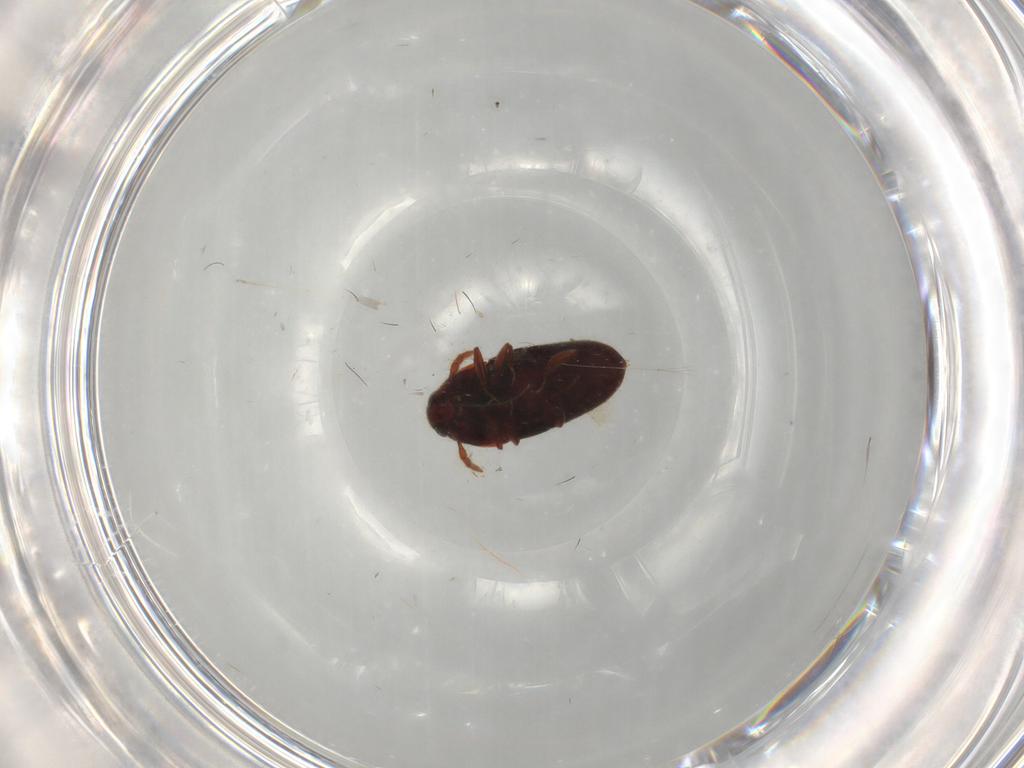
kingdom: Animalia
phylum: Arthropoda
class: Insecta
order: Coleoptera
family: Throscidae
